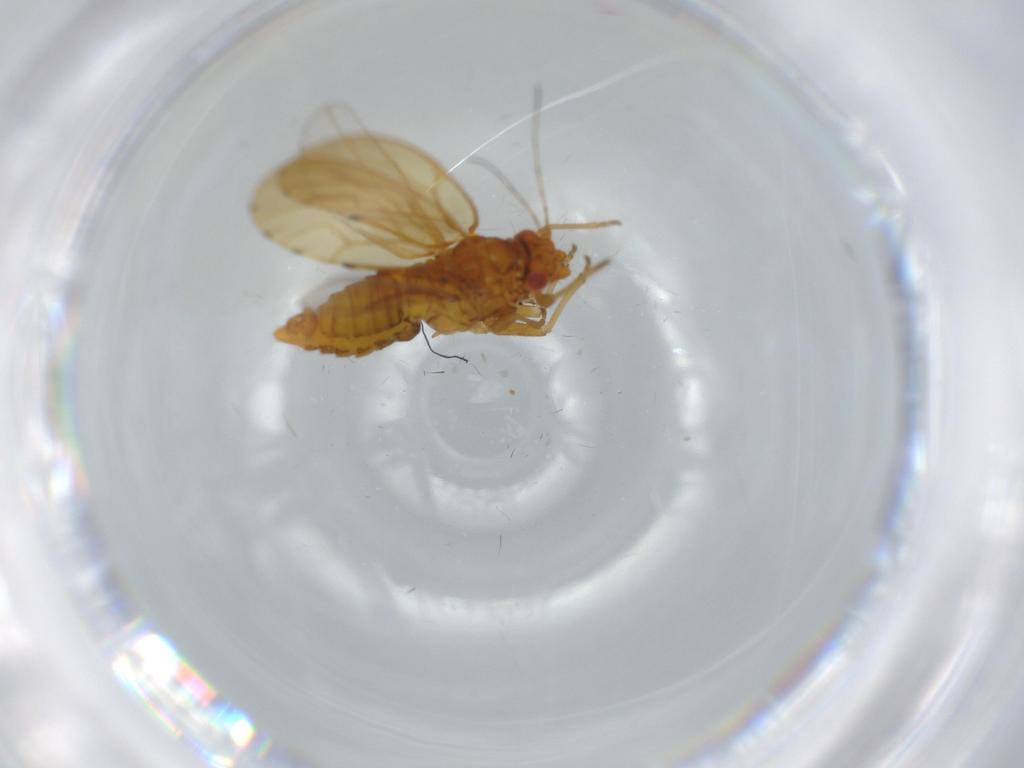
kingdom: Animalia
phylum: Arthropoda
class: Insecta
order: Hemiptera
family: Psylloidea_incertae_sedis
